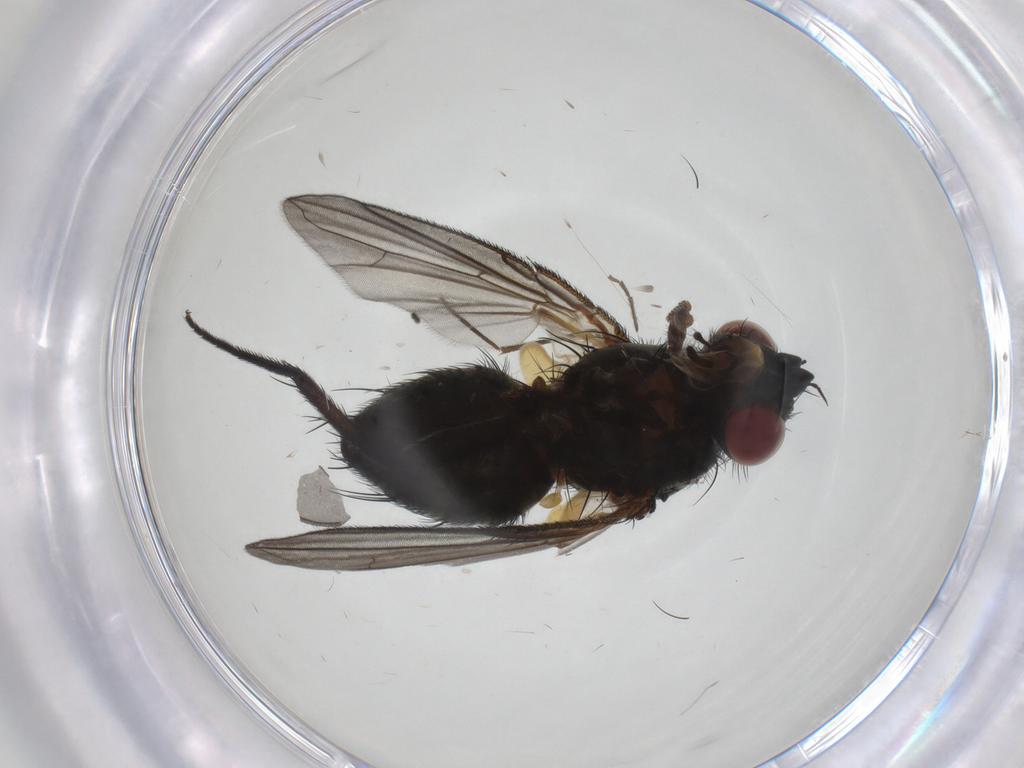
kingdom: Animalia
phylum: Arthropoda
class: Insecta
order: Diptera
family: Chironomidae
